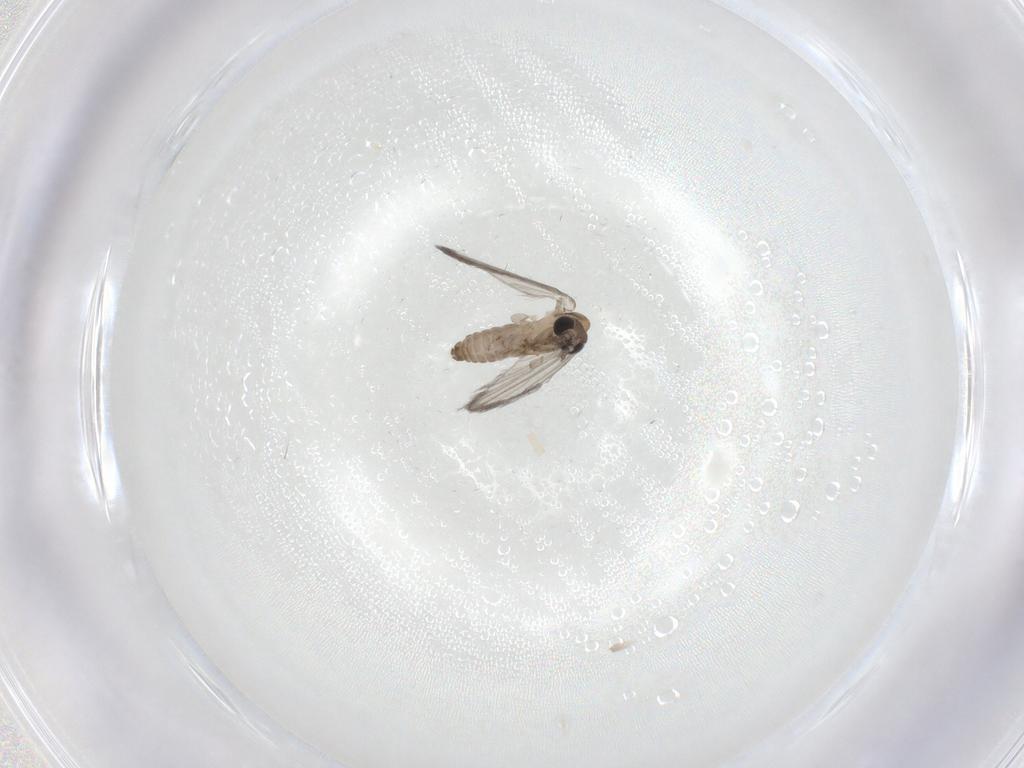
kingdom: Animalia
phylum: Arthropoda
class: Insecta
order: Diptera
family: Psychodidae
